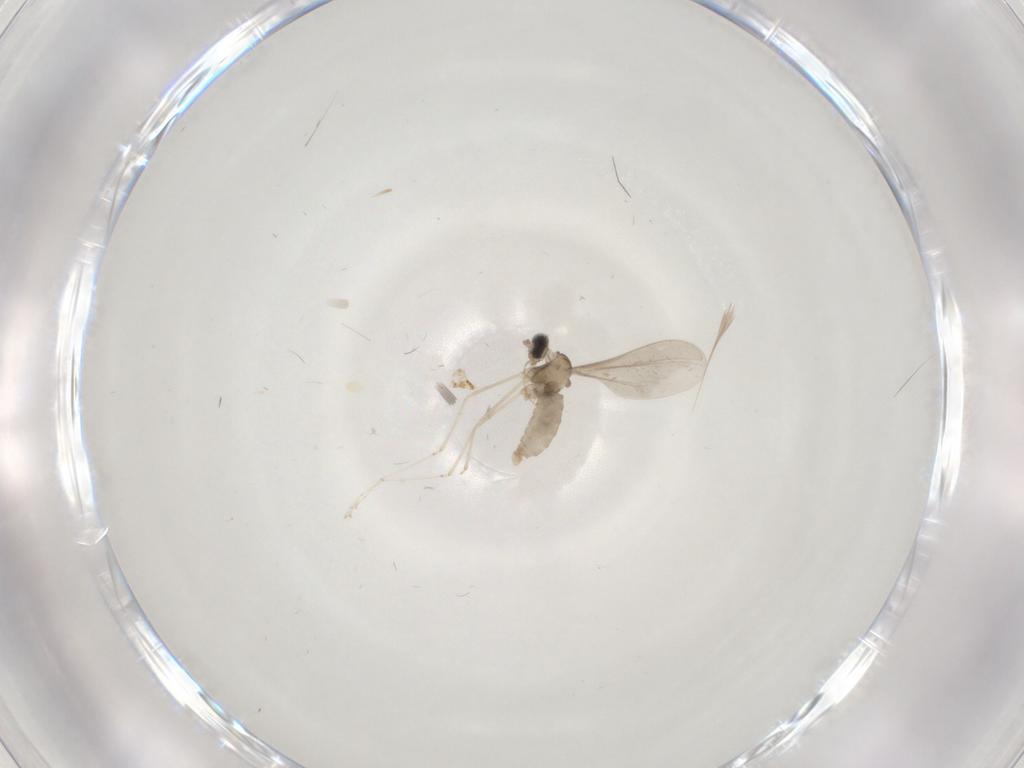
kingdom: Animalia
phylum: Arthropoda
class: Insecta
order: Diptera
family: Cecidomyiidae
